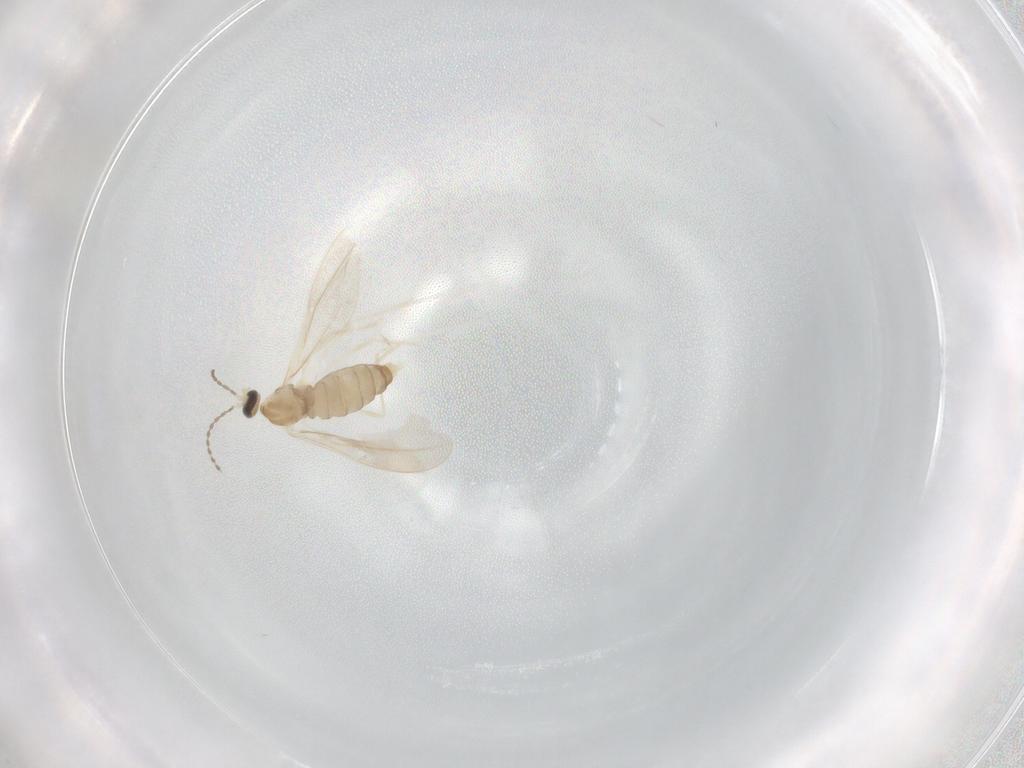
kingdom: Animalia
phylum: Arthropoda
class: Insecta
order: Diptera
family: Cecidomyiidae
